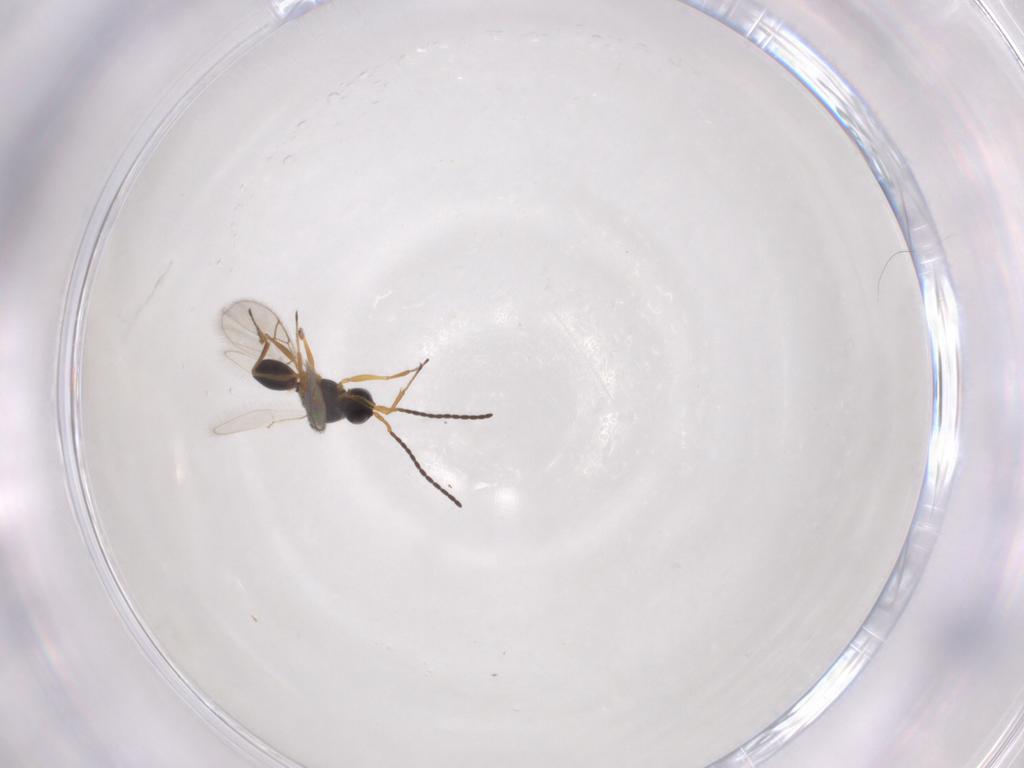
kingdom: Animalia
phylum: Arthropoda
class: Insecta
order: Hymenoptera
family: Figitidae
